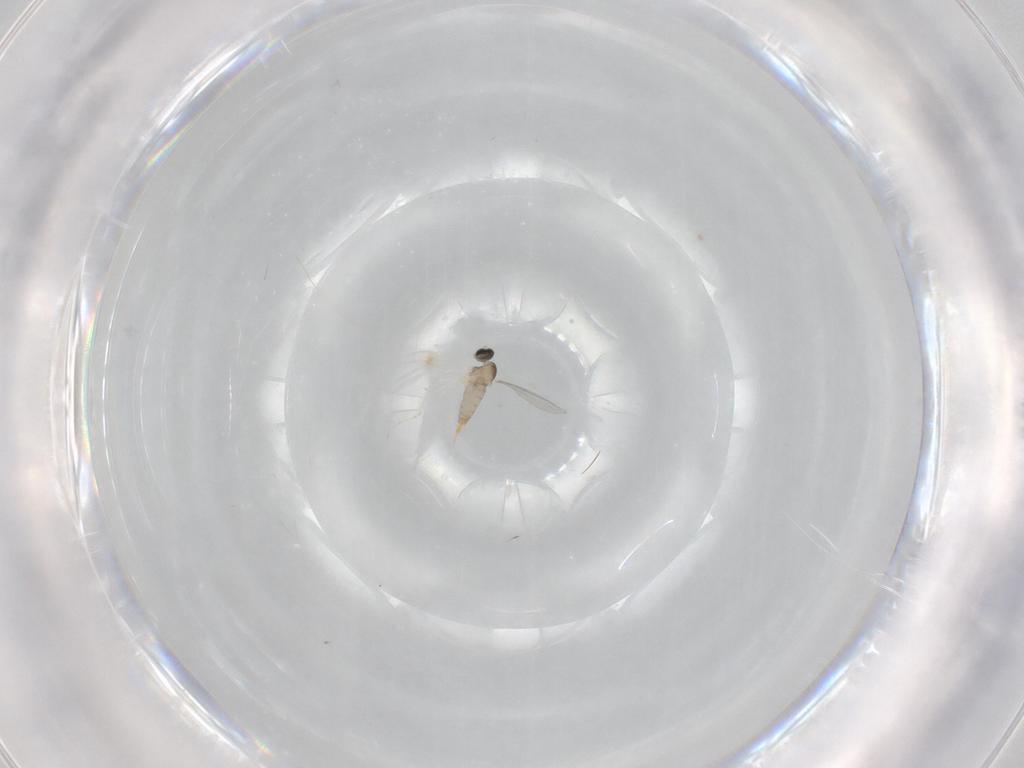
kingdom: Animalia
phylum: Arthropoda
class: Insecta
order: Diptera
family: Cecidomyiidae
